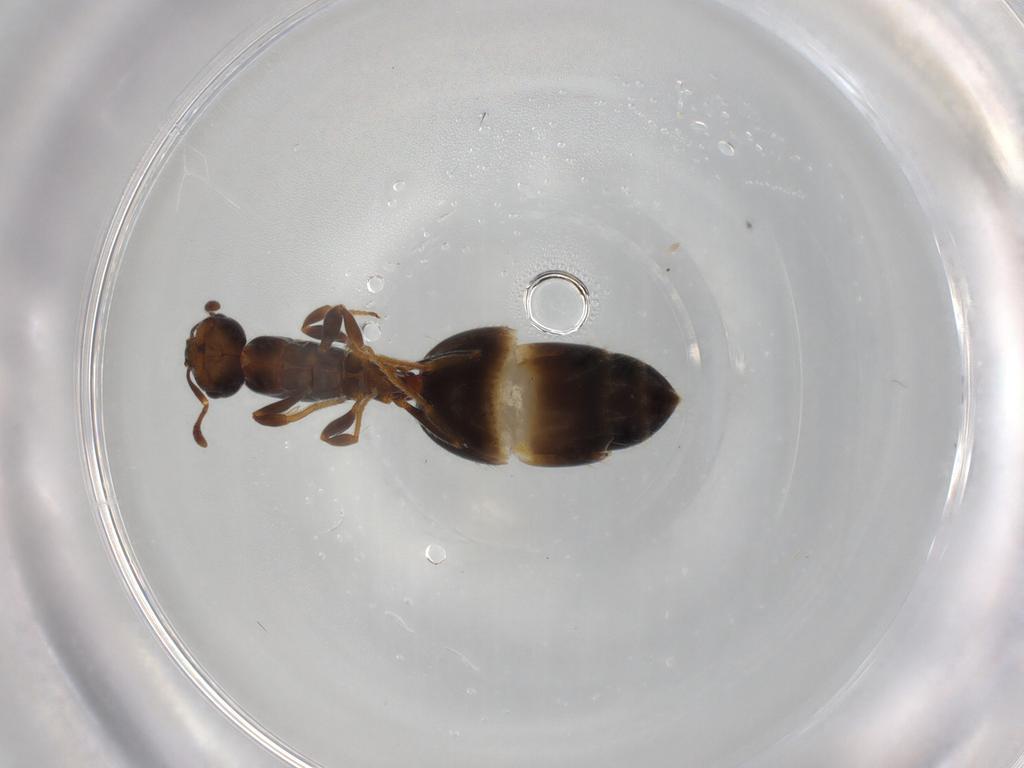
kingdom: Animalia
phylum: Arthropoda
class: Insecta
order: Hymenoptera
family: Formicidae
